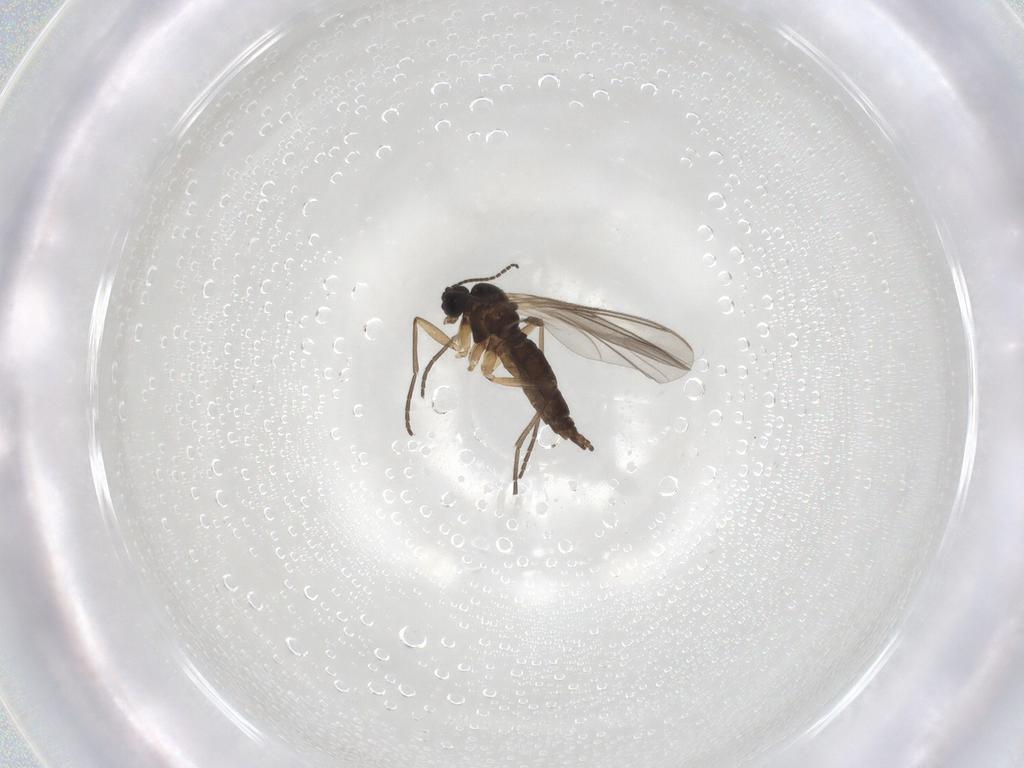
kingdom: Animalia
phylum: Arthropoda
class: Insecta
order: Diptera
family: Sciaridae
